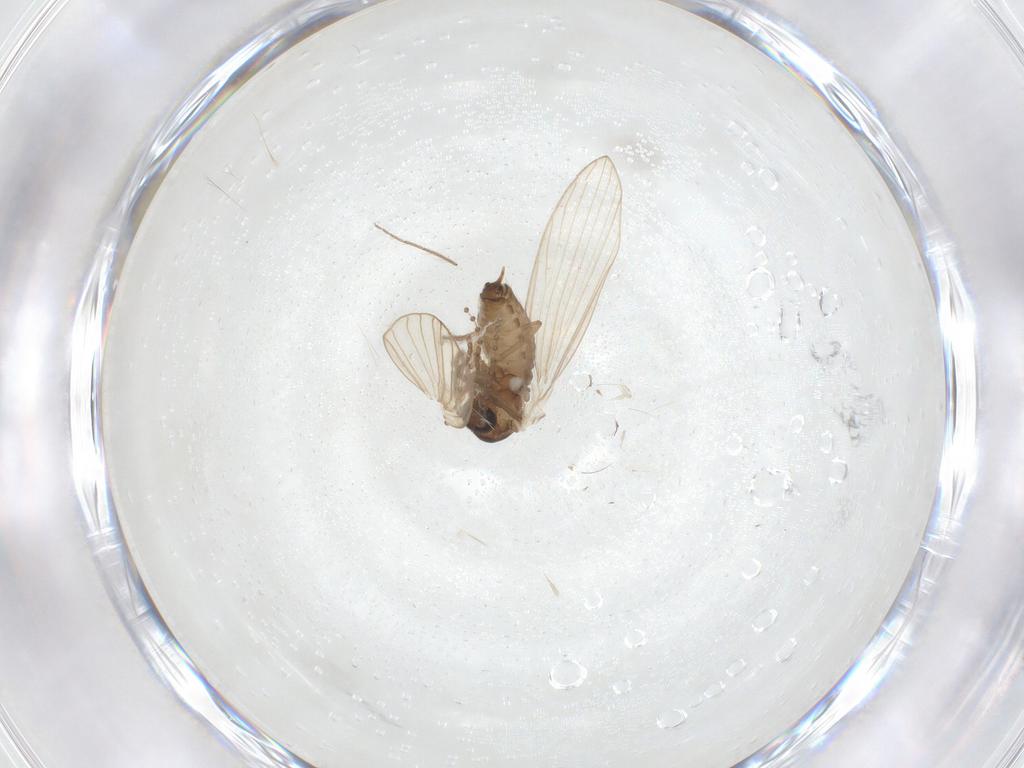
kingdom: Animalia
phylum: Arthropoda
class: Insecta
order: Diptera
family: Psychodidae
